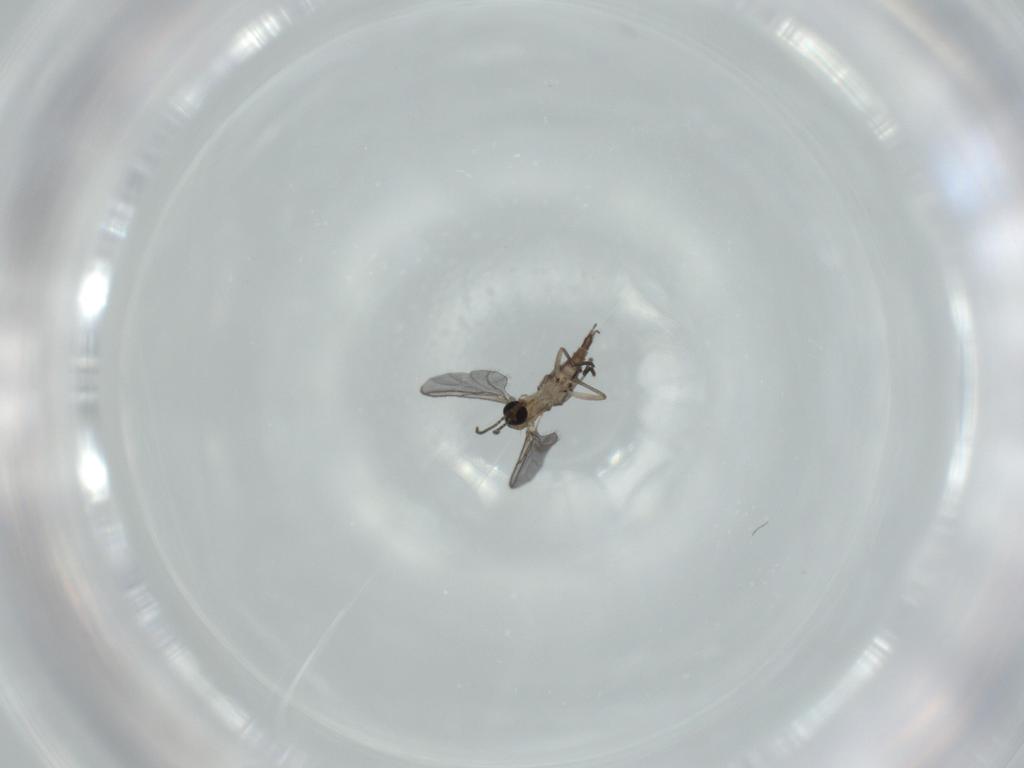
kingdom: Animalia
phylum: Arthropoda
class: Insecta
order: Diptera
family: Sciaridae
